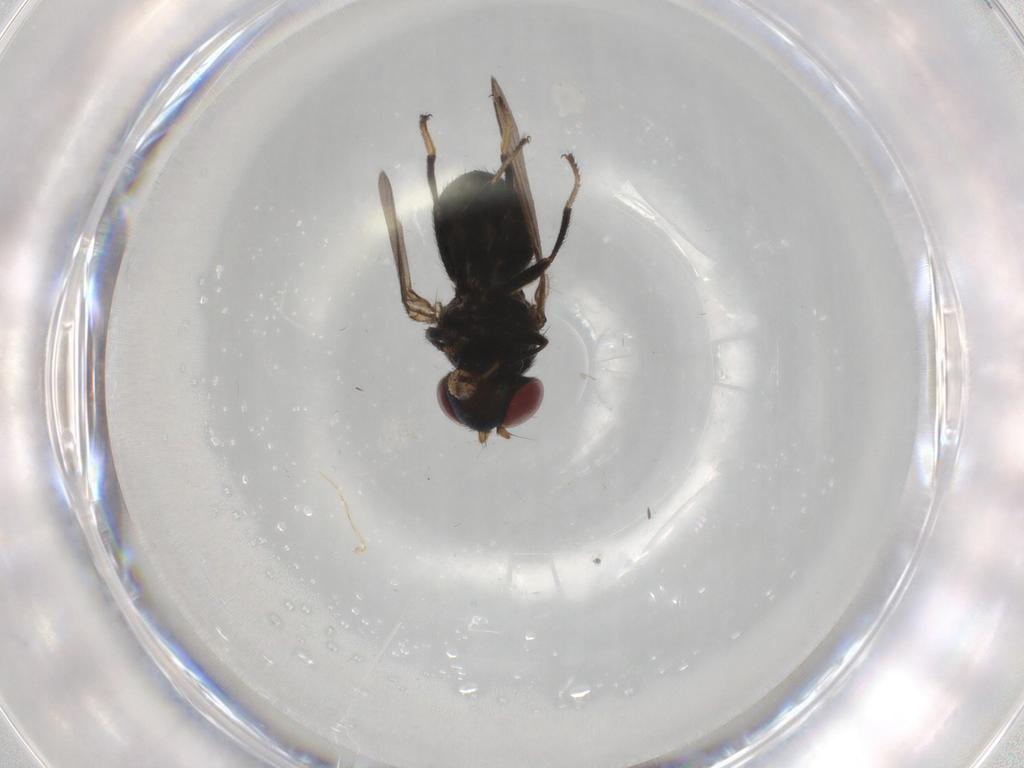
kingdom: Animalia
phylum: Arthropoda
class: Insecta
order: Diptera
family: Ephydridae
